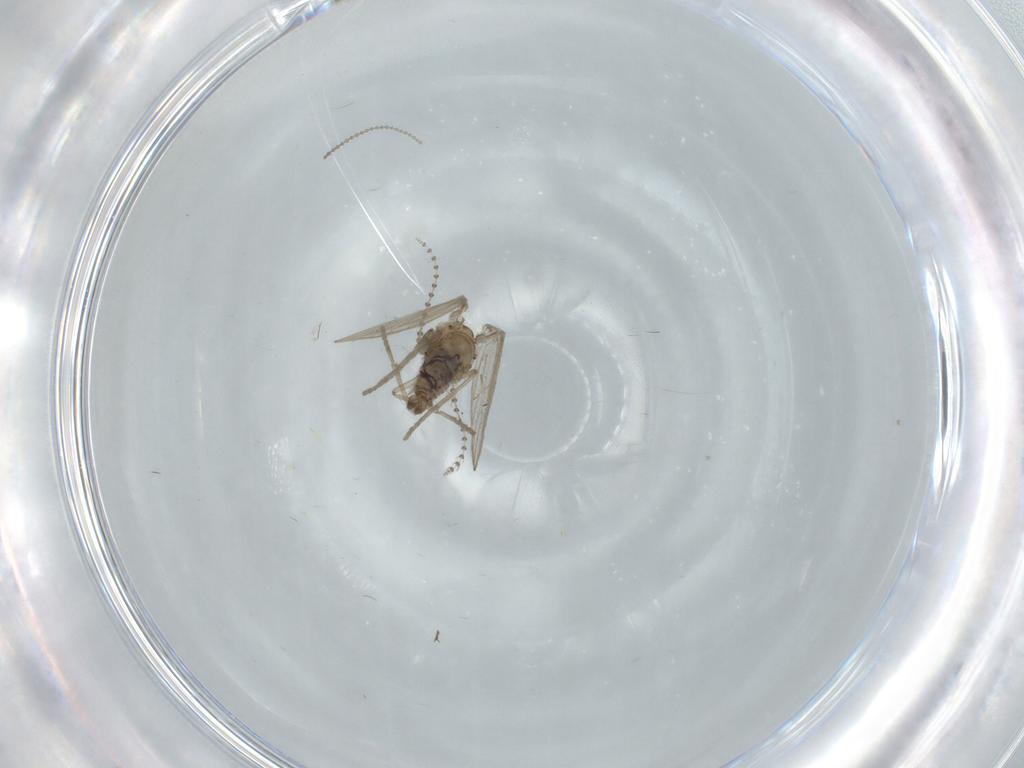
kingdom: Animalia
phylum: Arthropoda
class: Insecta
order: Diptera
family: Psychodidae
